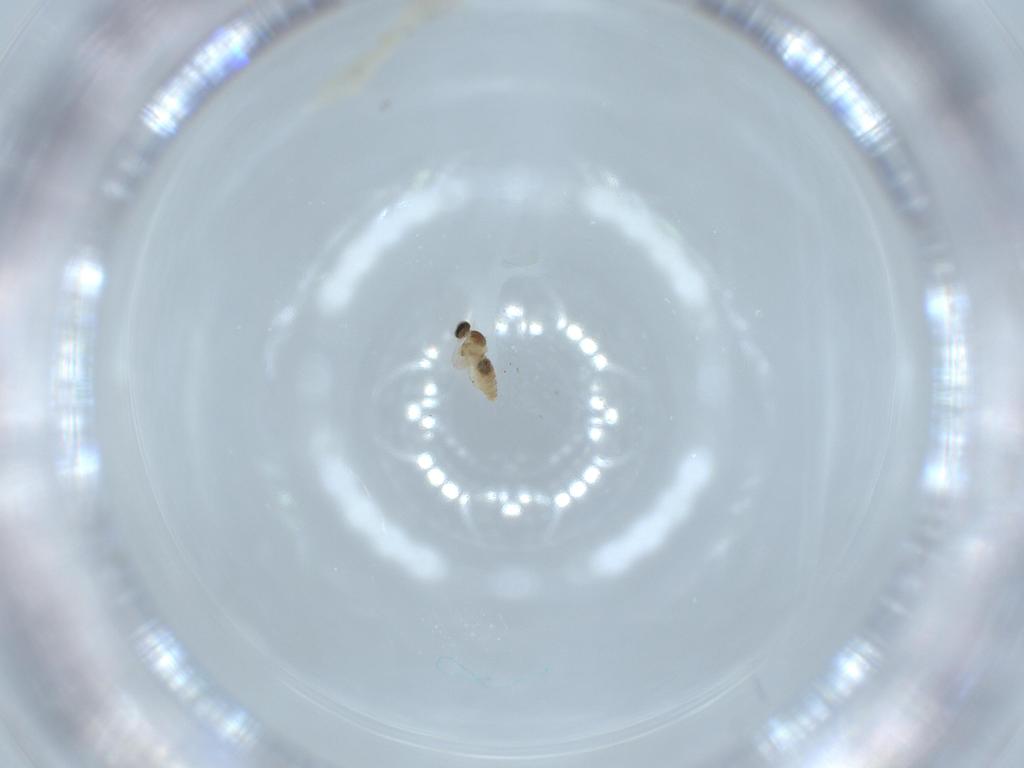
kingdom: Animalia
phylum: Arthropoda
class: Insecta
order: Diptera
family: Cecidomyiidae
